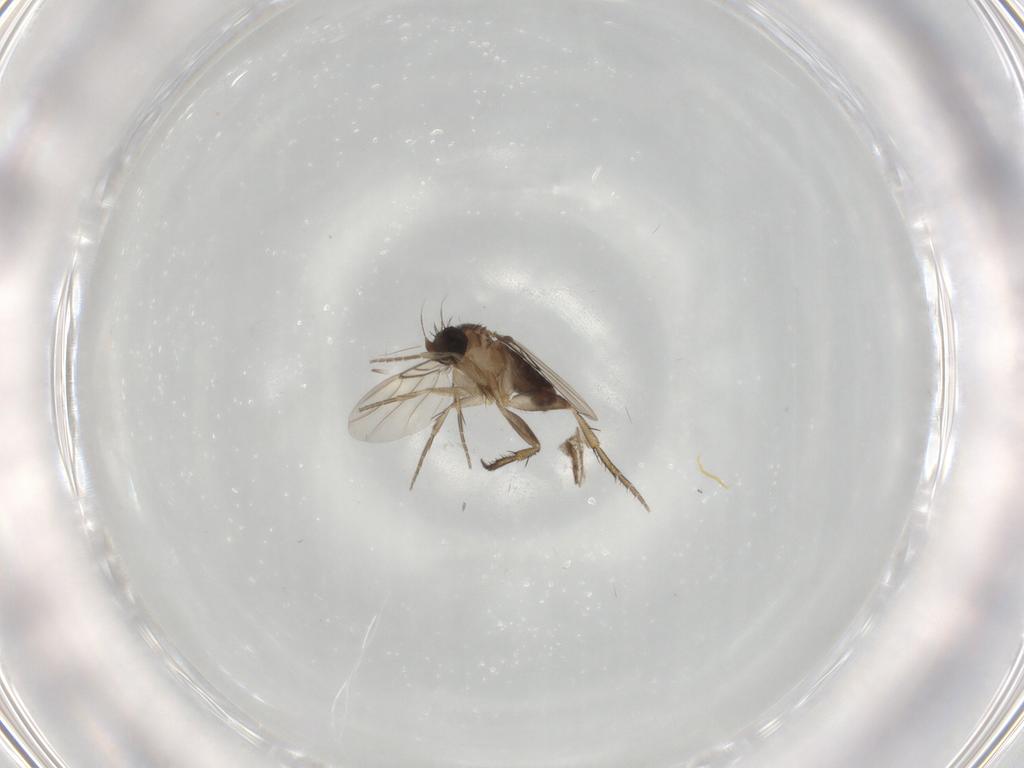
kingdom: Animalia
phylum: Arthropoda
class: Insecta
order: Diptera
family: Phoridae
